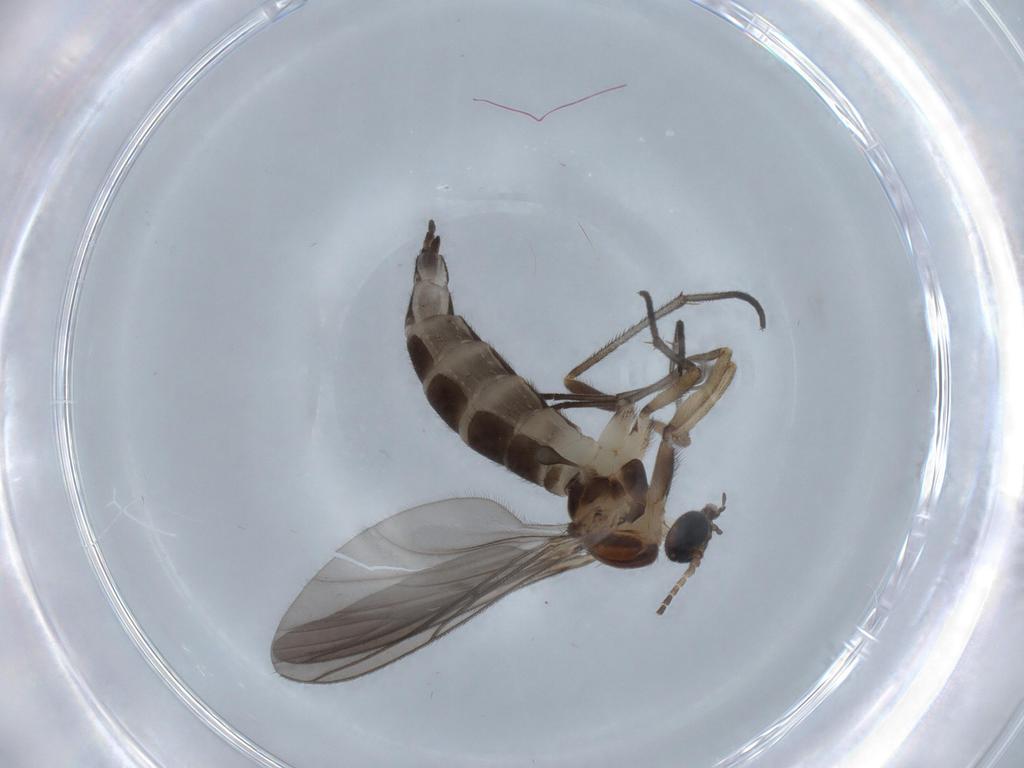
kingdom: Animalia
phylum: Arthropoda
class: Insecta
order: Diptera
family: Sciaridae
